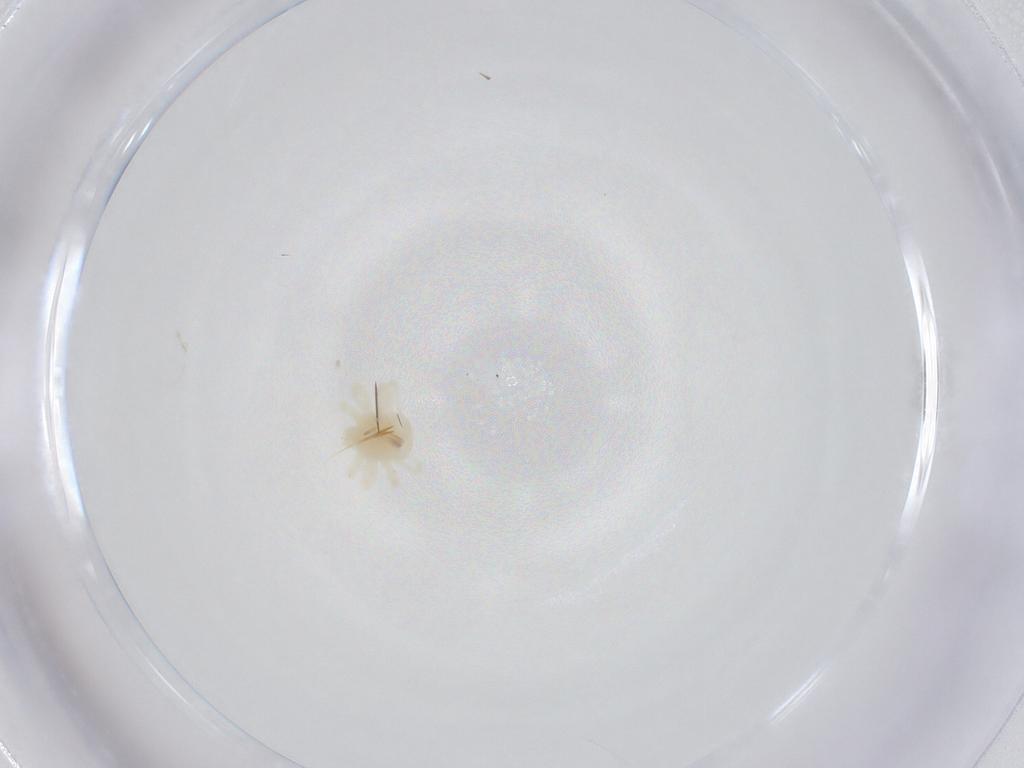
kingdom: Animalia
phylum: Arthropoda
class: Arachnida
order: Trombidiformes
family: Anystidae
